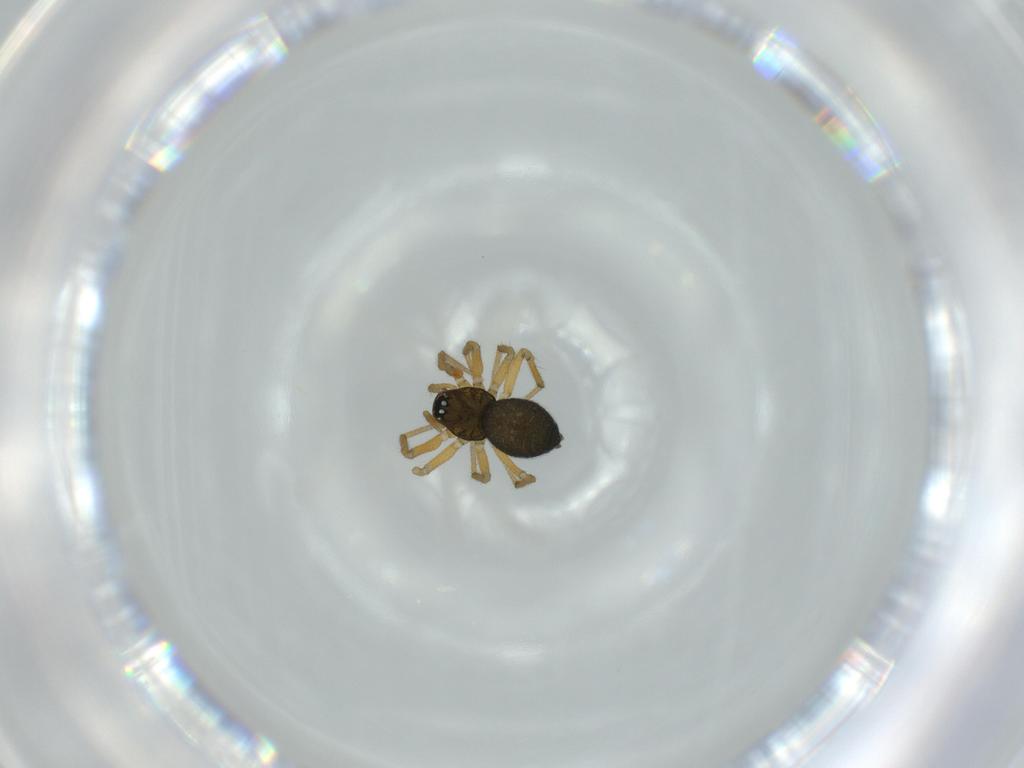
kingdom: Animalia
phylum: Arthropoda
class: Arachnida
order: Araneae
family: Linyphiidae
